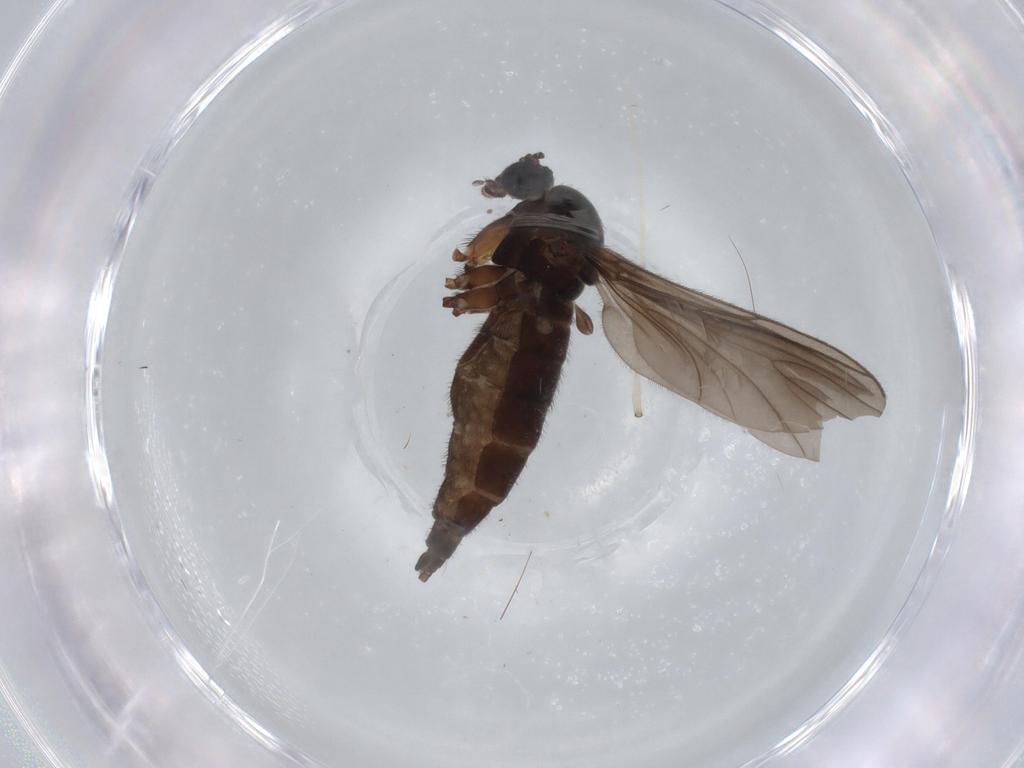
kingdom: Animalia
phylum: Arthropoda
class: Insecta
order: Diptera
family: Sciaridae
